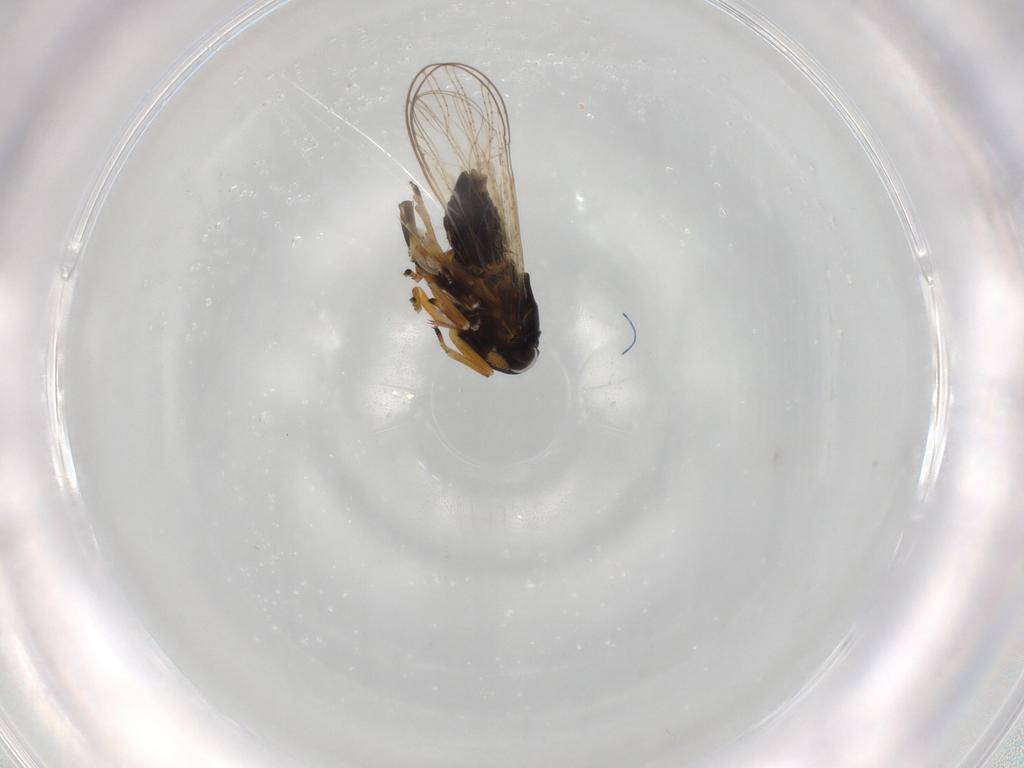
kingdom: Animalia
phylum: Arthropoda
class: Insecta
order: Hemiptera
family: Delphacidae
